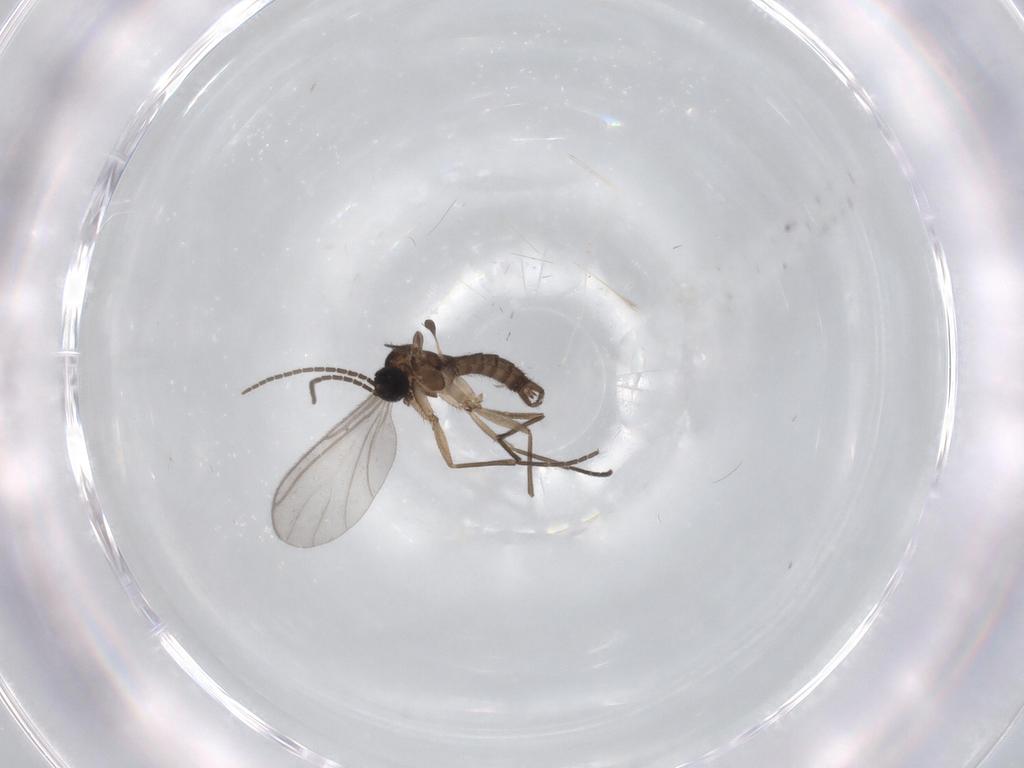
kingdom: Animalia
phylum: Arthropoda
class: Insecta
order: Diptera
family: Sciaridae
